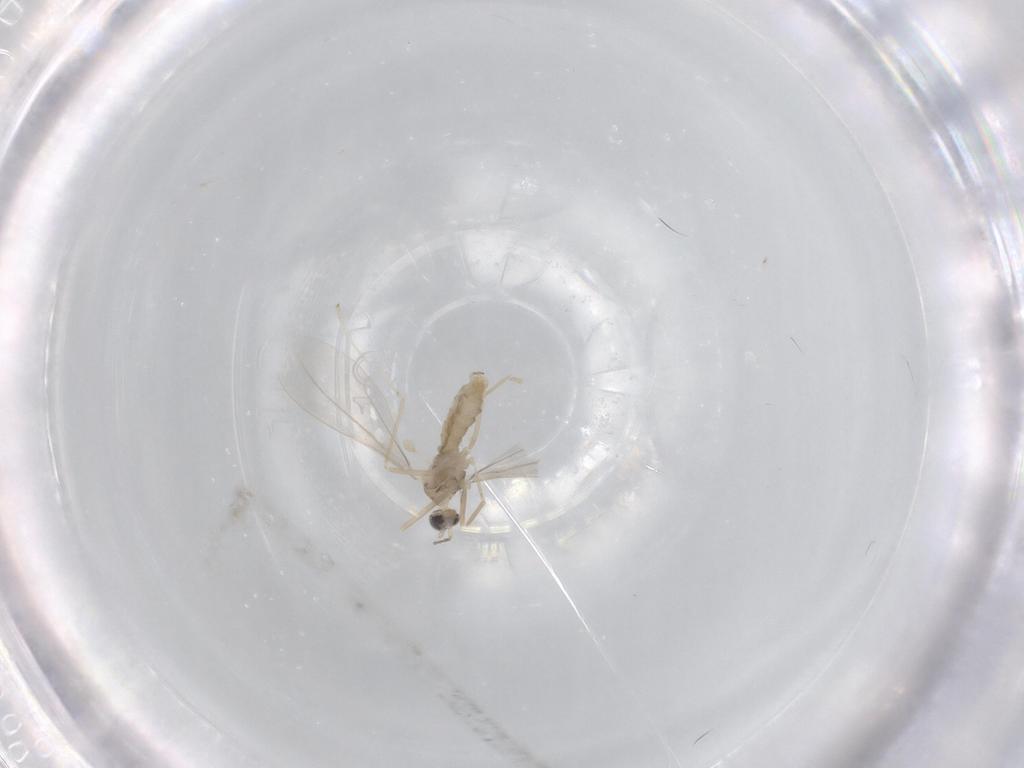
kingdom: Animalia
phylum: Arthropoda
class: Insecta
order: Diptera
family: Cecidomyiidae
